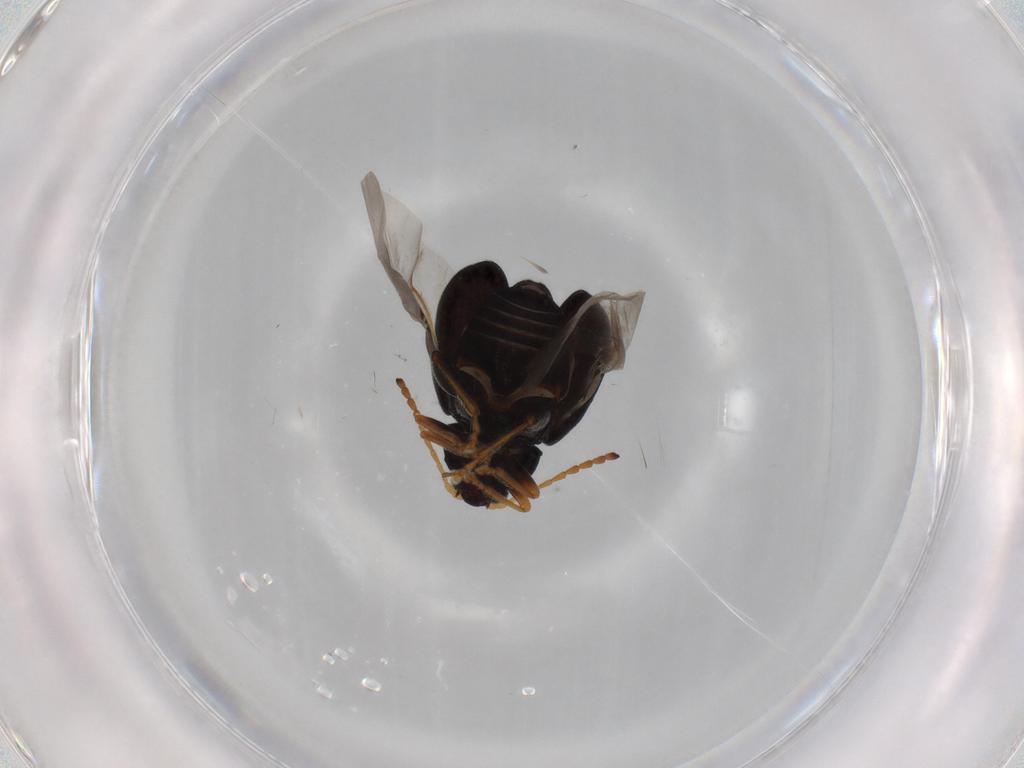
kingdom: Animalia
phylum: Arthropoda
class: Insecta
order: Coleoptera
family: Chrysomelidae
